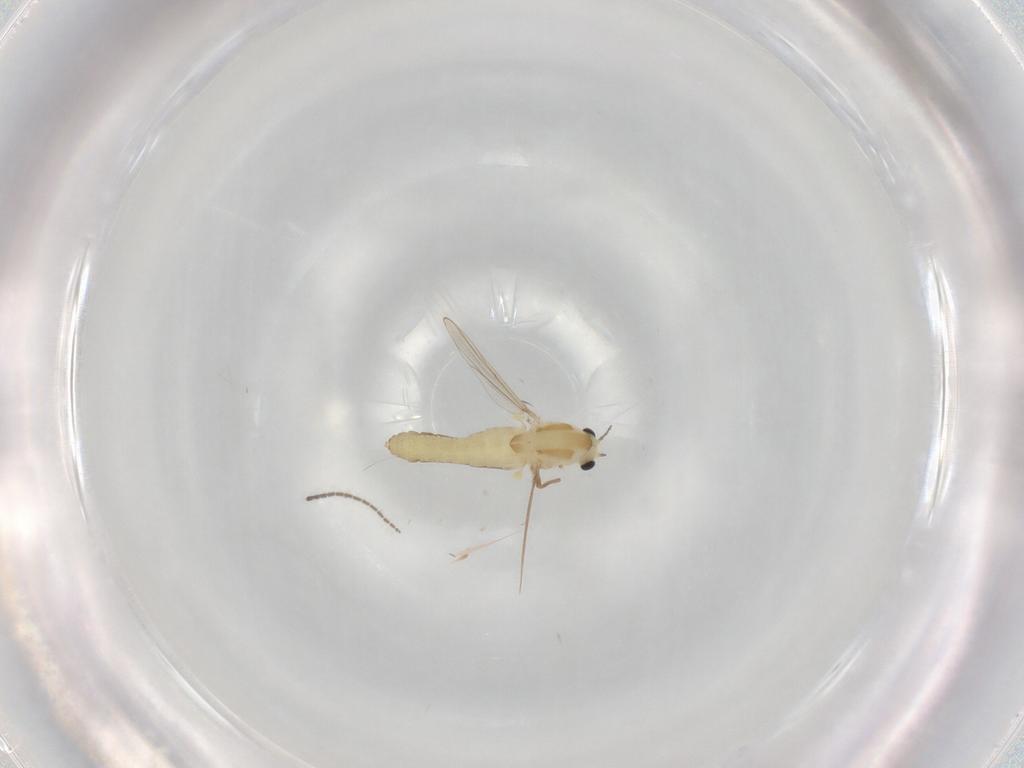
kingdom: Animalia
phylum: Arthropoda
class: Insecta
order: Diptera
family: Chironomidae
